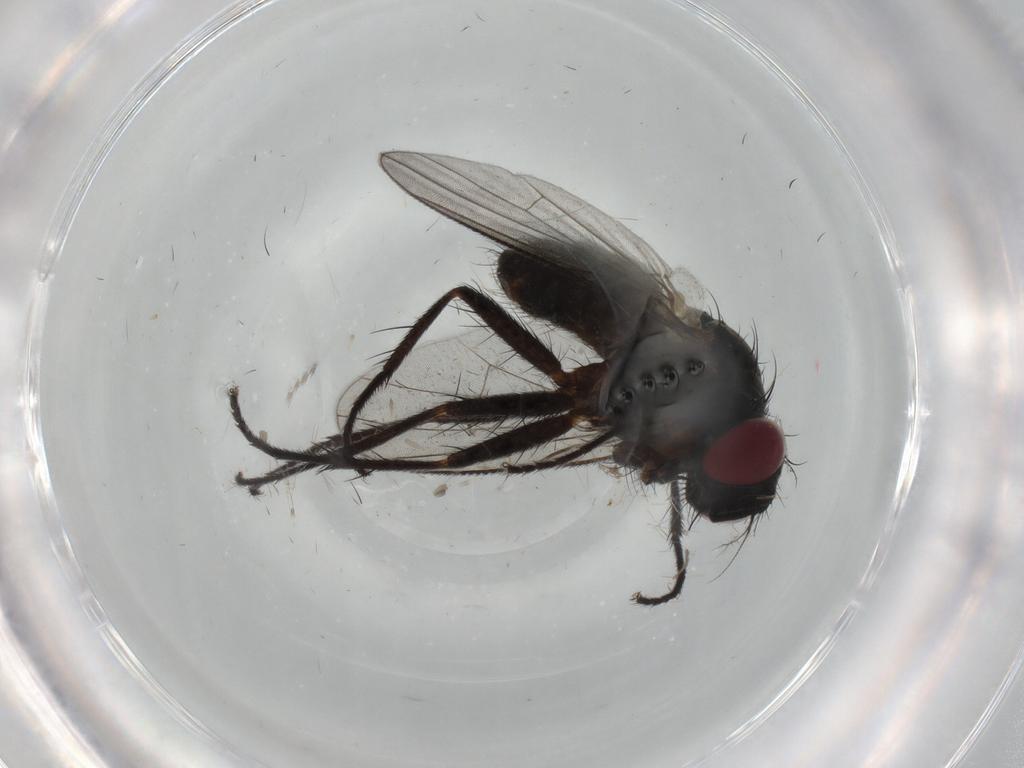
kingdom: Animalia
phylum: Arthropoda
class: Insecta
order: Diptera
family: Muscidae
